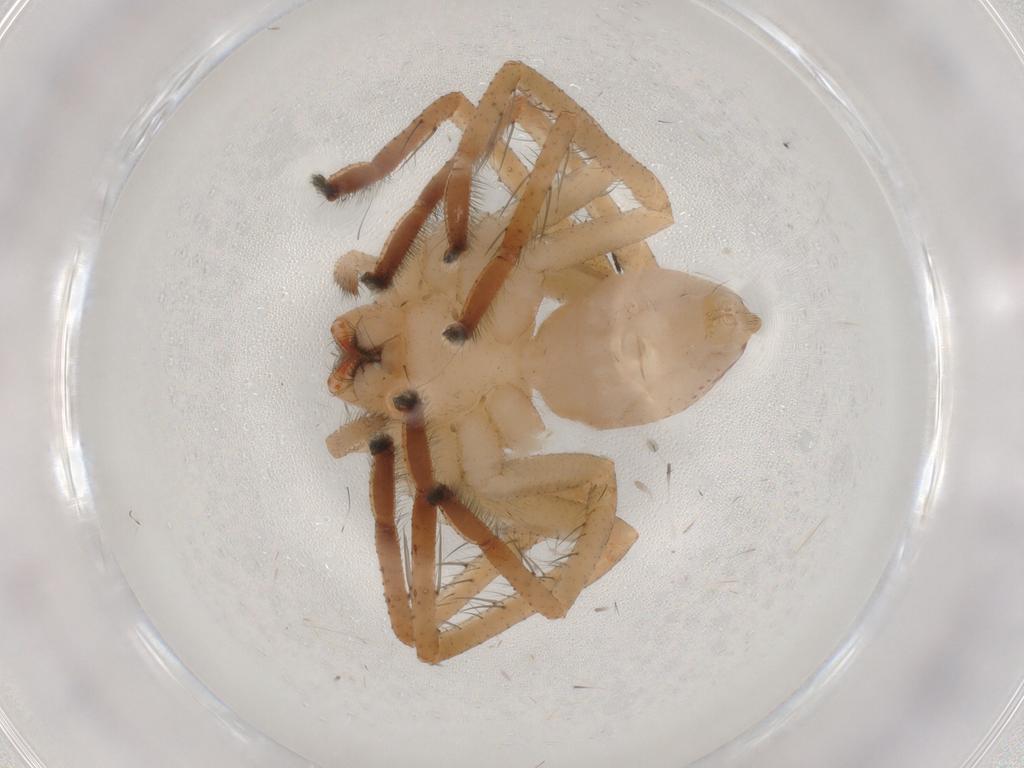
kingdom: Animalia
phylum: Arthropoda
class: Arachnida
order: Araneae
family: Sparassidae
